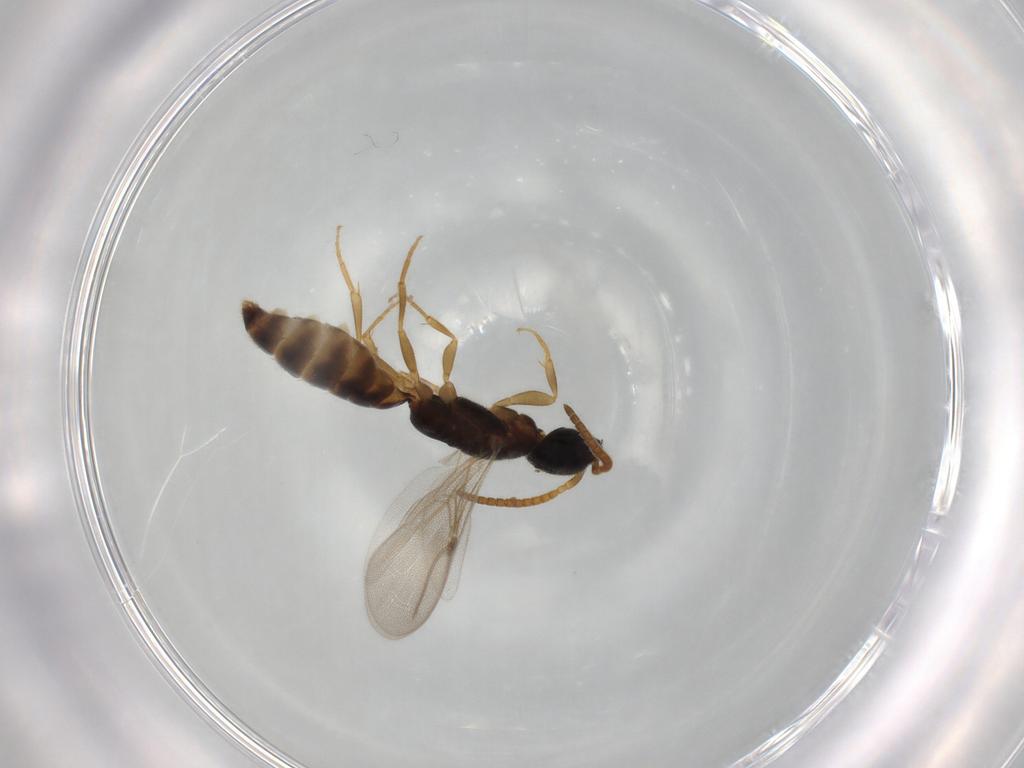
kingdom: Animalia
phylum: Arthropoda
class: Insecta
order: Hymenoptera
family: Bethylidae
